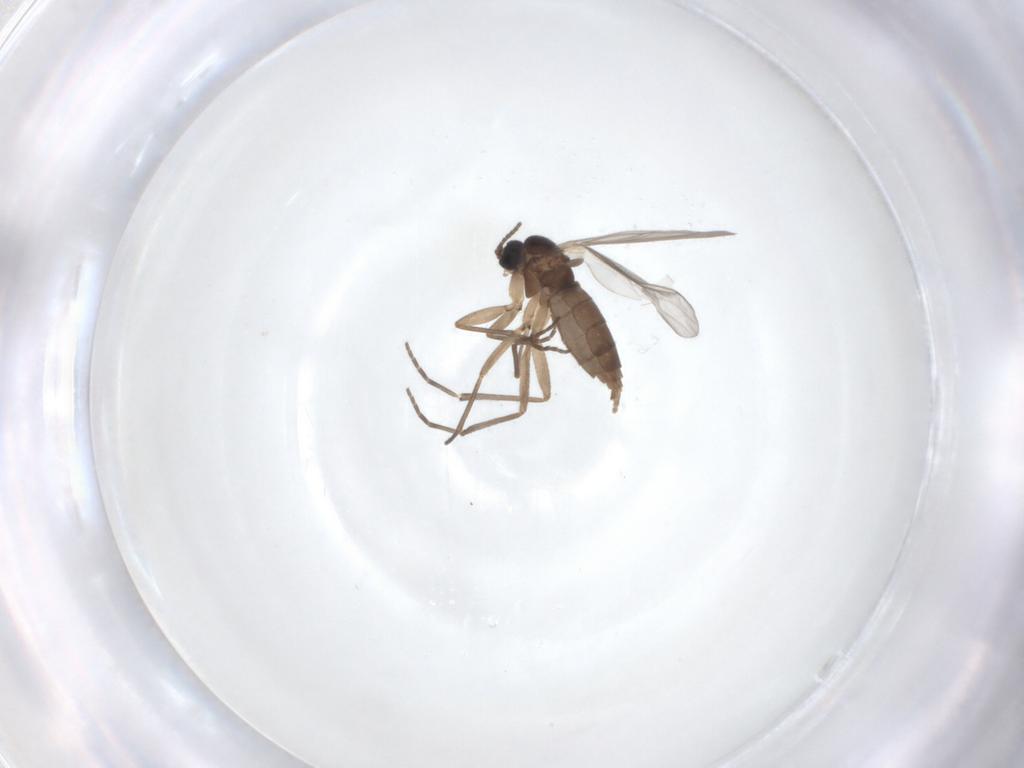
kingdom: Animalia
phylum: Arthropoda
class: Insecta
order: Diptera
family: Sciaridae
